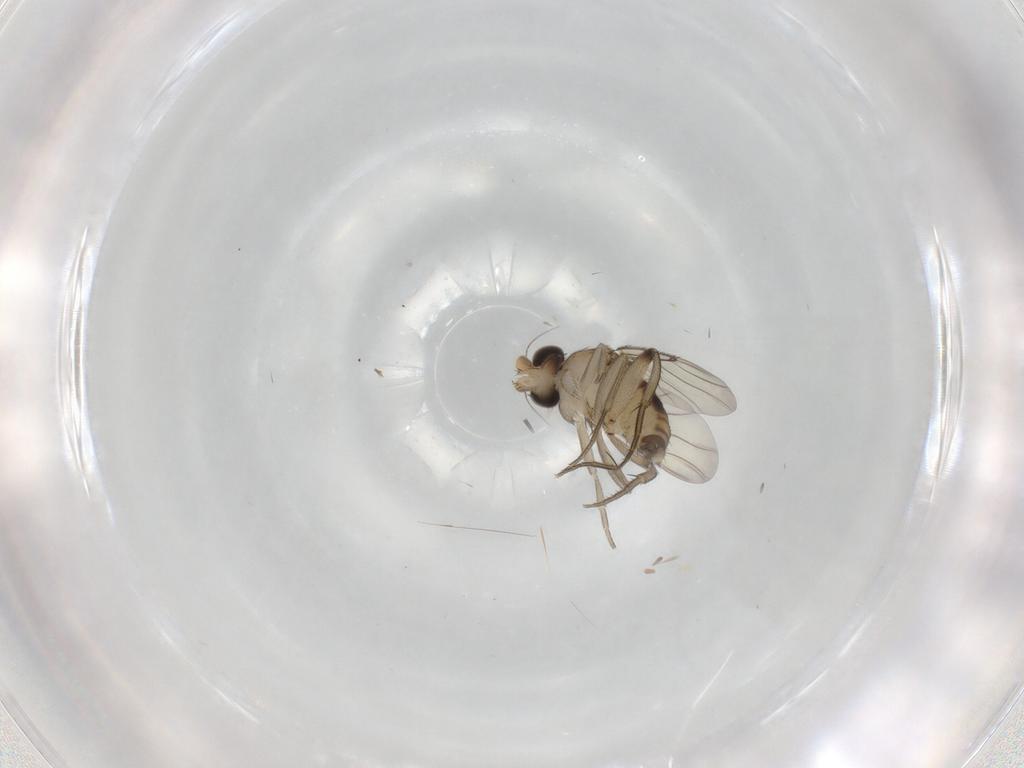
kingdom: Animalia
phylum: Arthropoda
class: Insecta
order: Diptera
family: Phoridae
